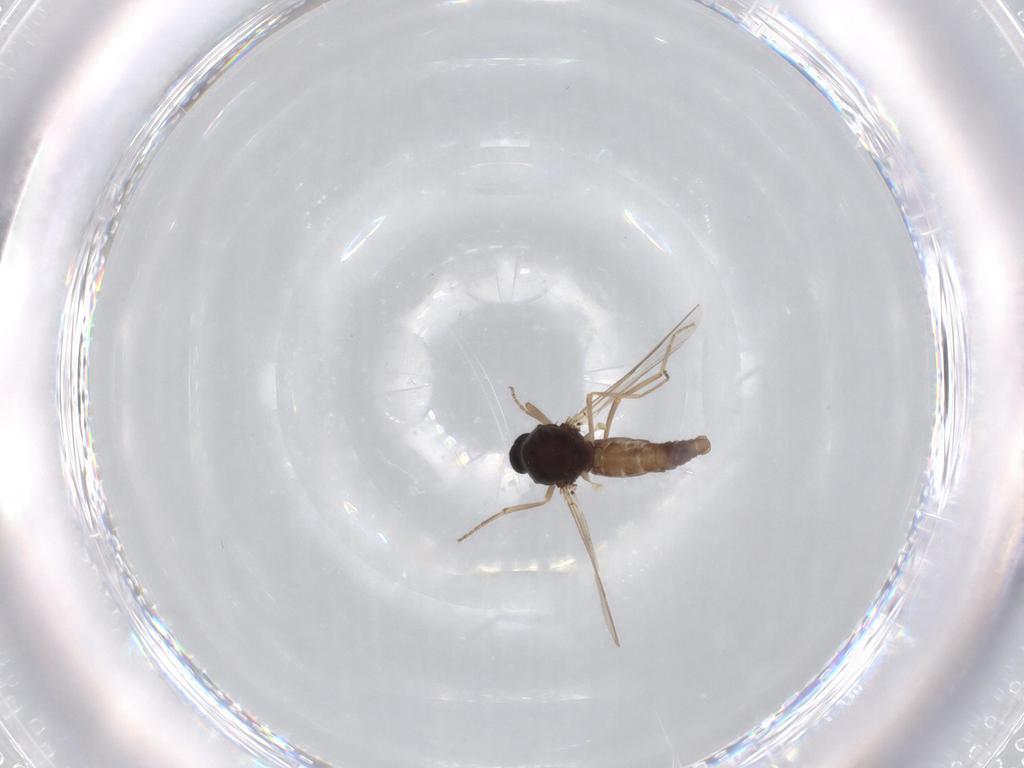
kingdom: Animalia
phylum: Arthropoda
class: Insecta
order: Diptera
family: Ceratopogonidae
